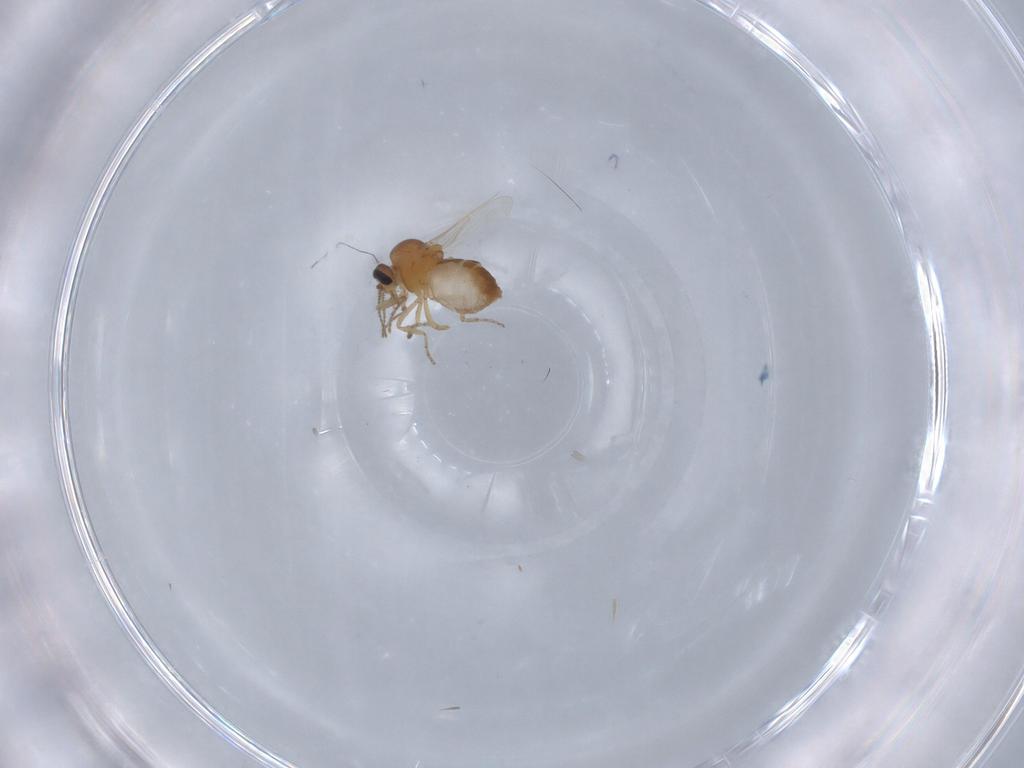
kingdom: Animalia
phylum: Arthropoda
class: Insecta
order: Diptera
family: Ceratopogonidae
